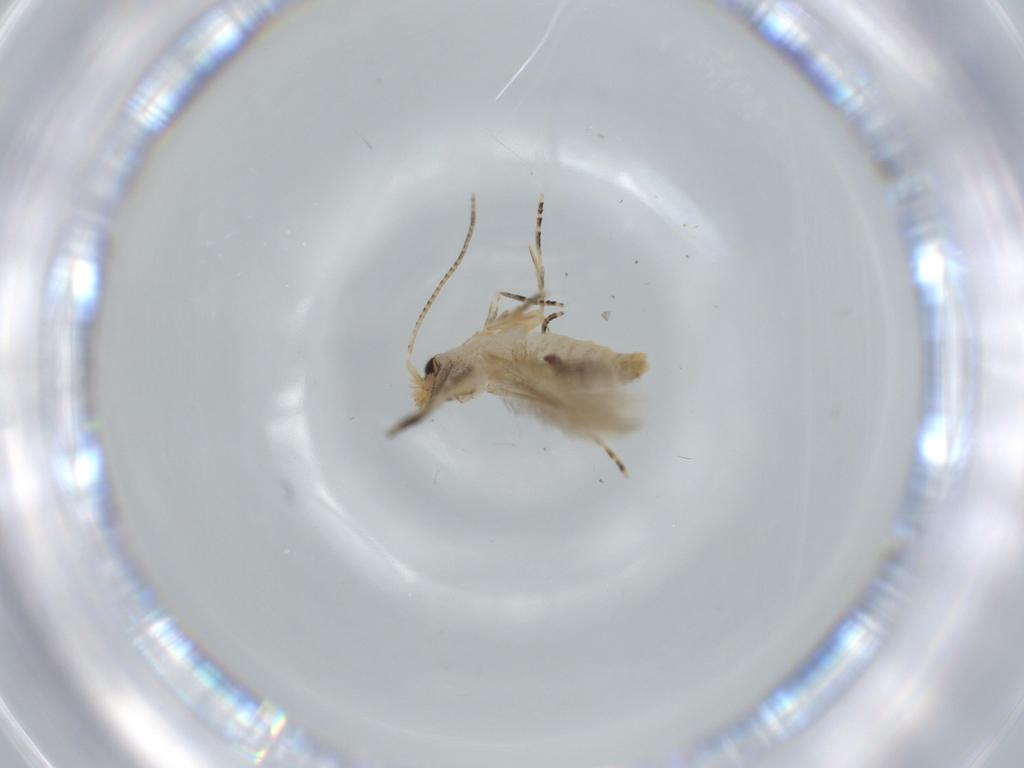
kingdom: Animalia
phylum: Arthropoda
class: Insecta
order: Lepidoptera
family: Bucculatricidae
